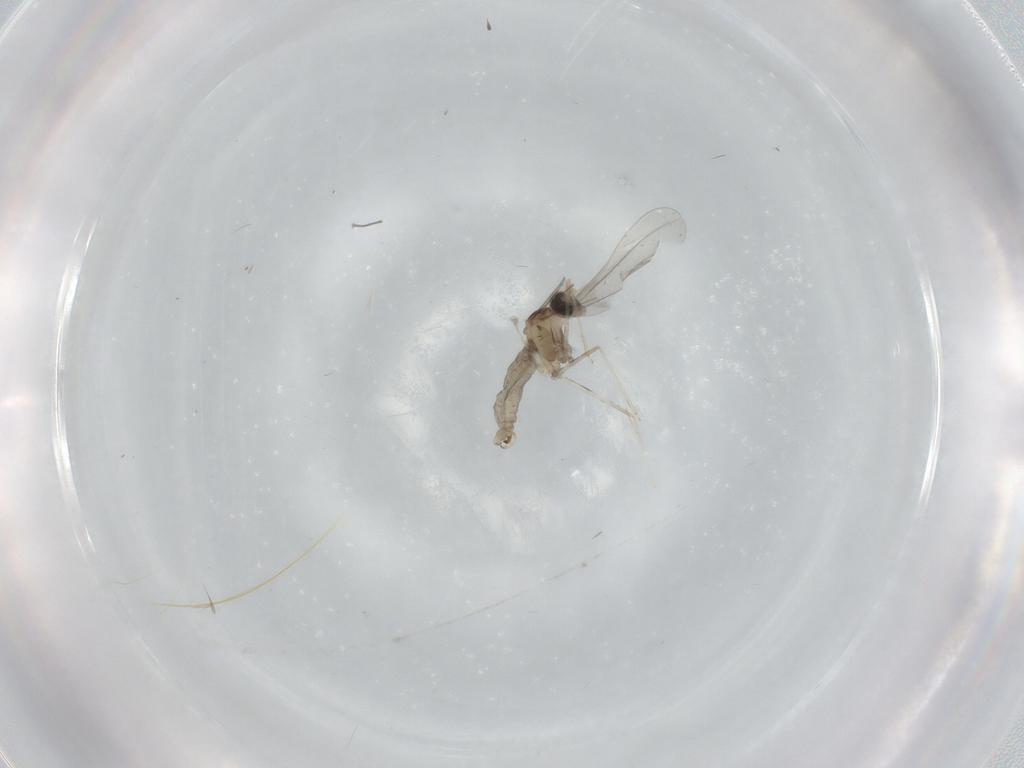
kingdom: Animalia
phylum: Arthropoda
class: Insecta
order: Diptera
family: Cecidomyiidae
